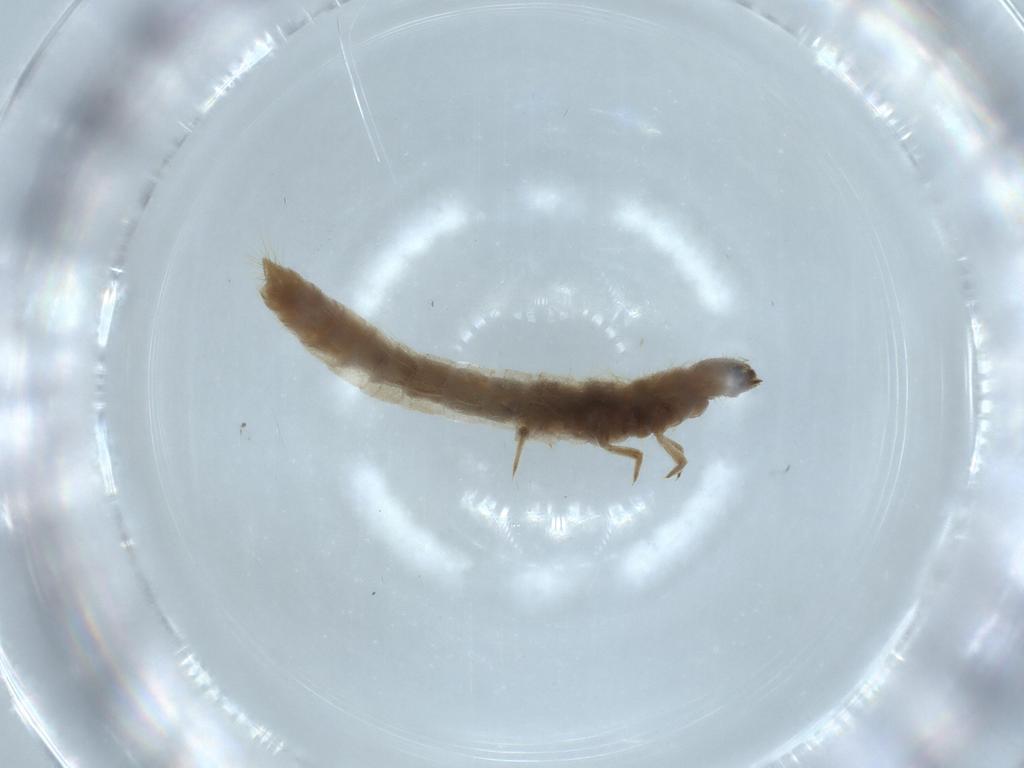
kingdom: Animalia
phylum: Arthropoda
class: Insecta
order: Coleoptera
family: Scraptiidae
